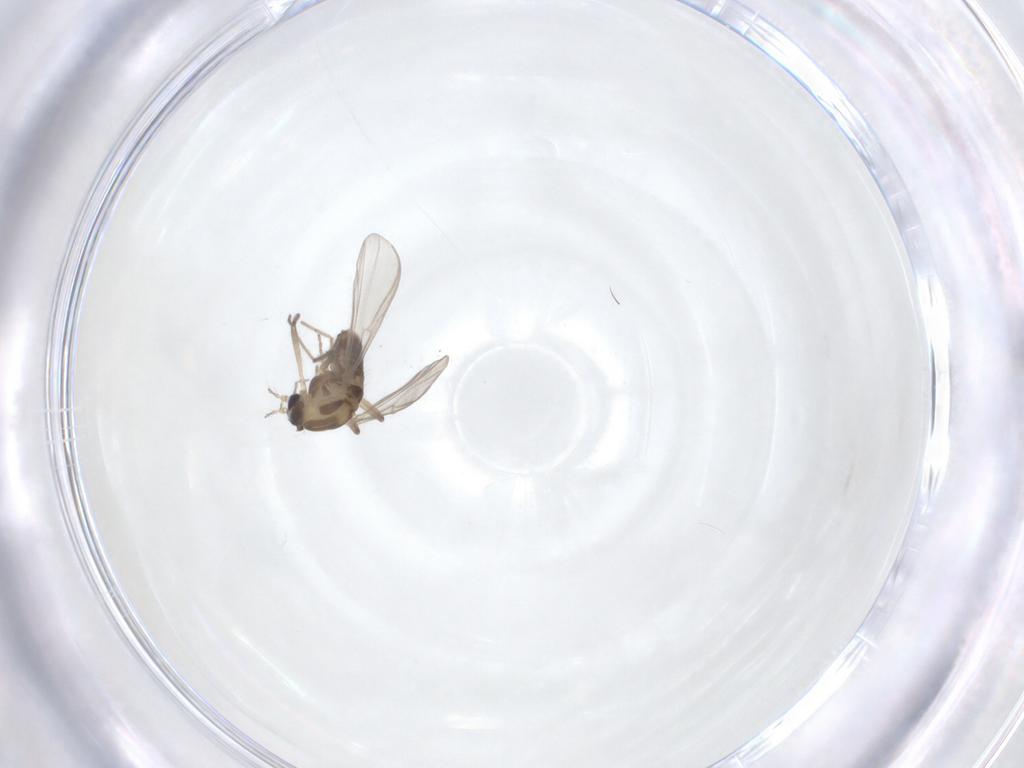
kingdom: Animalia
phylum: Arthropoda
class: Insecta
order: Diptera
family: Chironomidae
